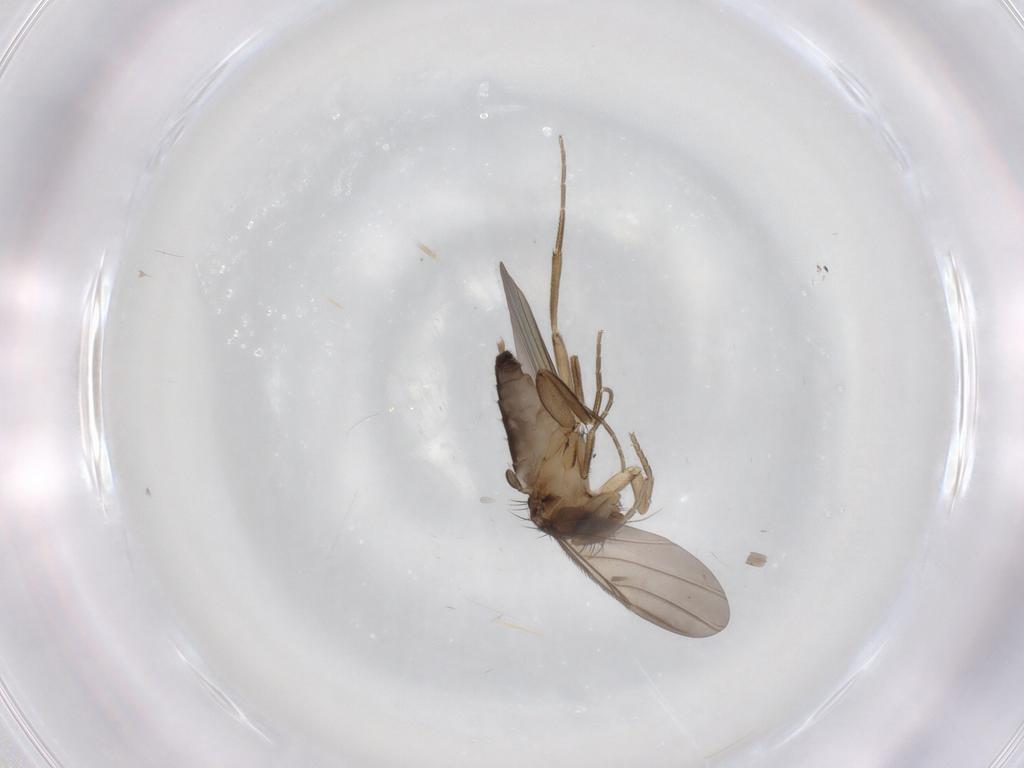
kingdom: Animalia
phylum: Arthropoda
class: Insecta
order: Diptera
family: Phoridae
